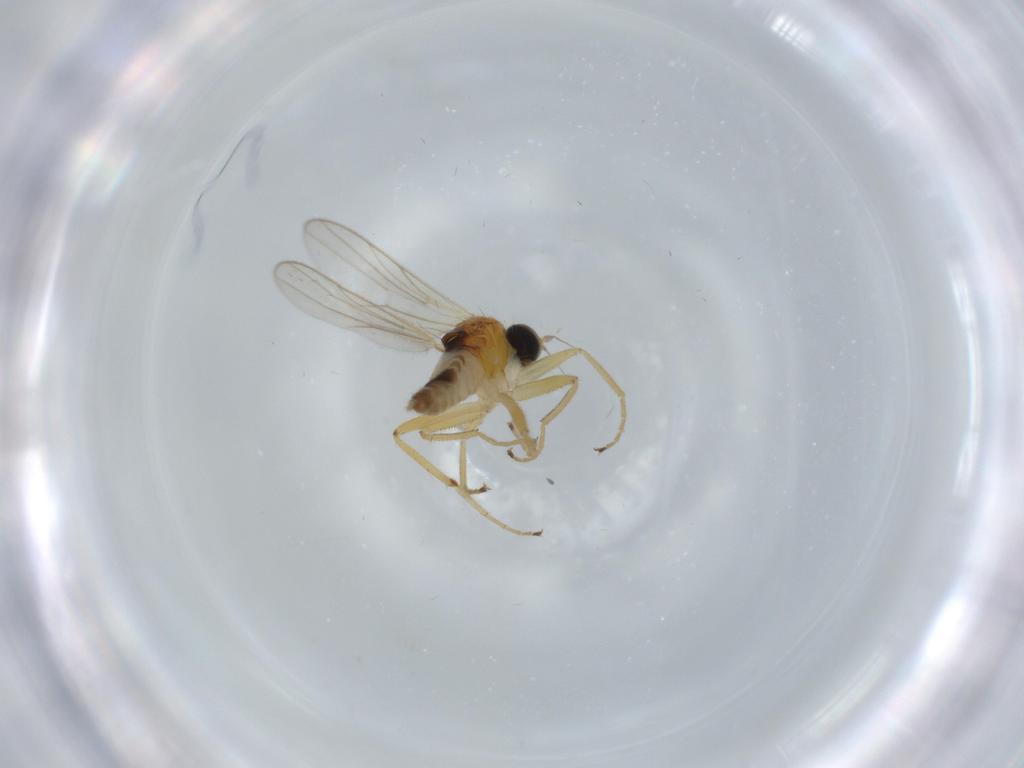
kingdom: Animalia
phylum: Arthropoda
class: Insecta
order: Diptera
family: Hybotidae
